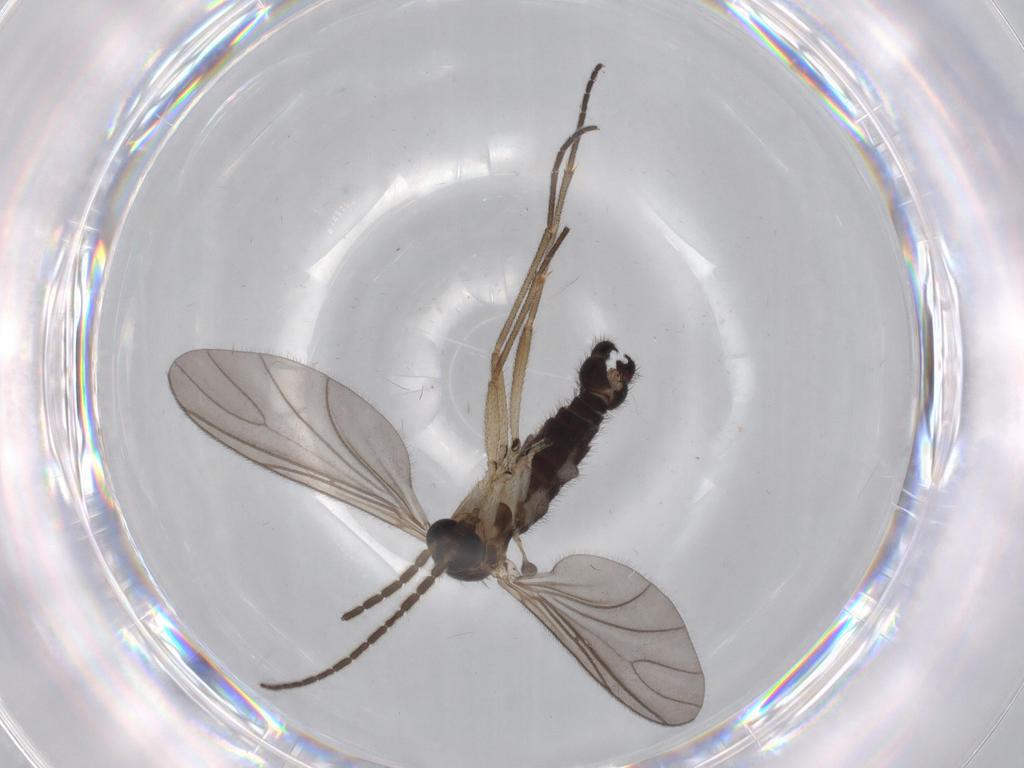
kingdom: Animalia
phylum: Arthropoda
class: Insecta
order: Diptera
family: Sciaridae
